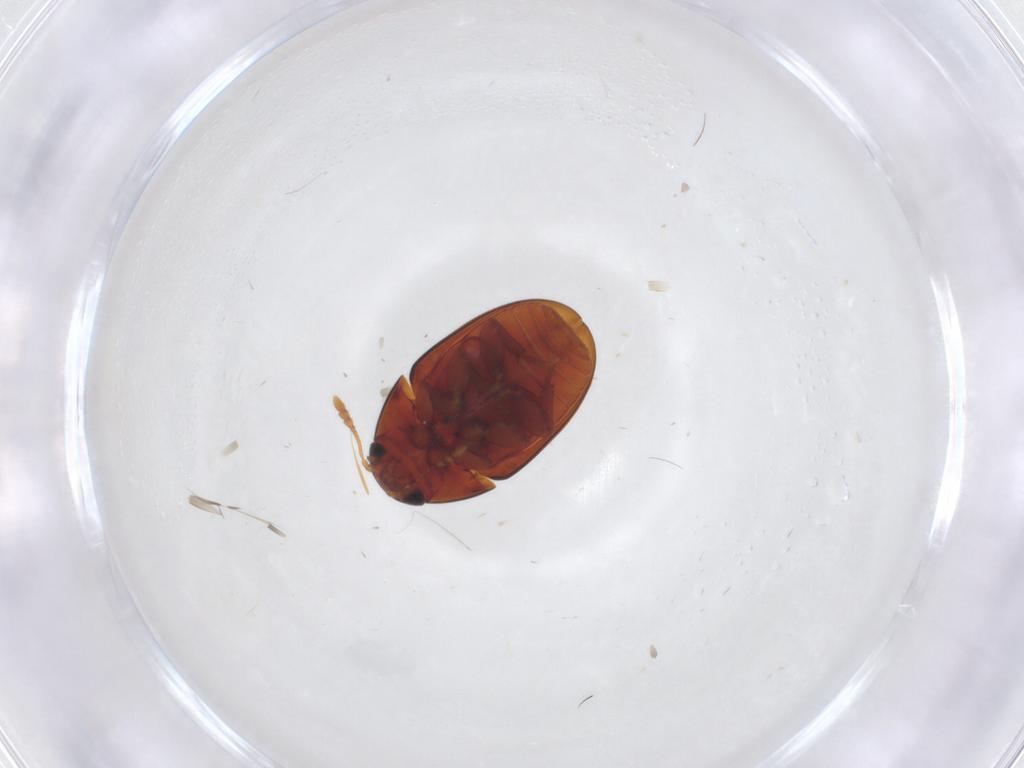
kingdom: Animalia
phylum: Arthropoda
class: Insecta
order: Coleoptera
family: Phalacridae
